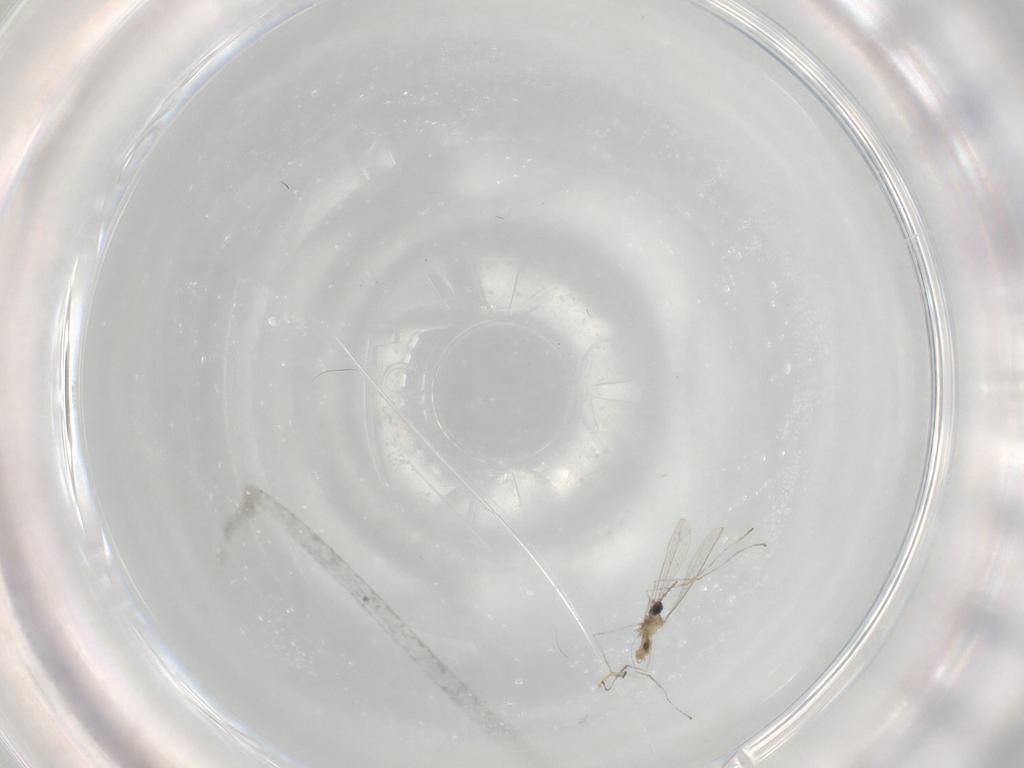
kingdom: Animalia
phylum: Arthropoda
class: Insecta
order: Diptera
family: Cecidomyiidae
